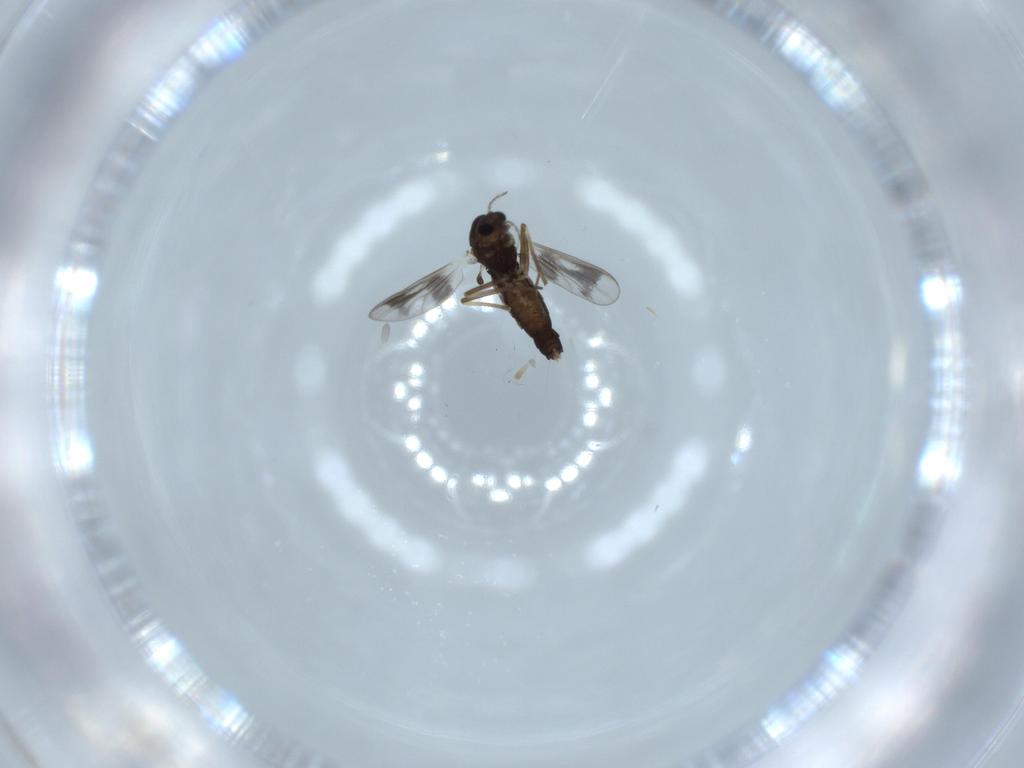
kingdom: Animalia
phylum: Arthropoda
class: Insecta
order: Diptera
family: Chironomidae
